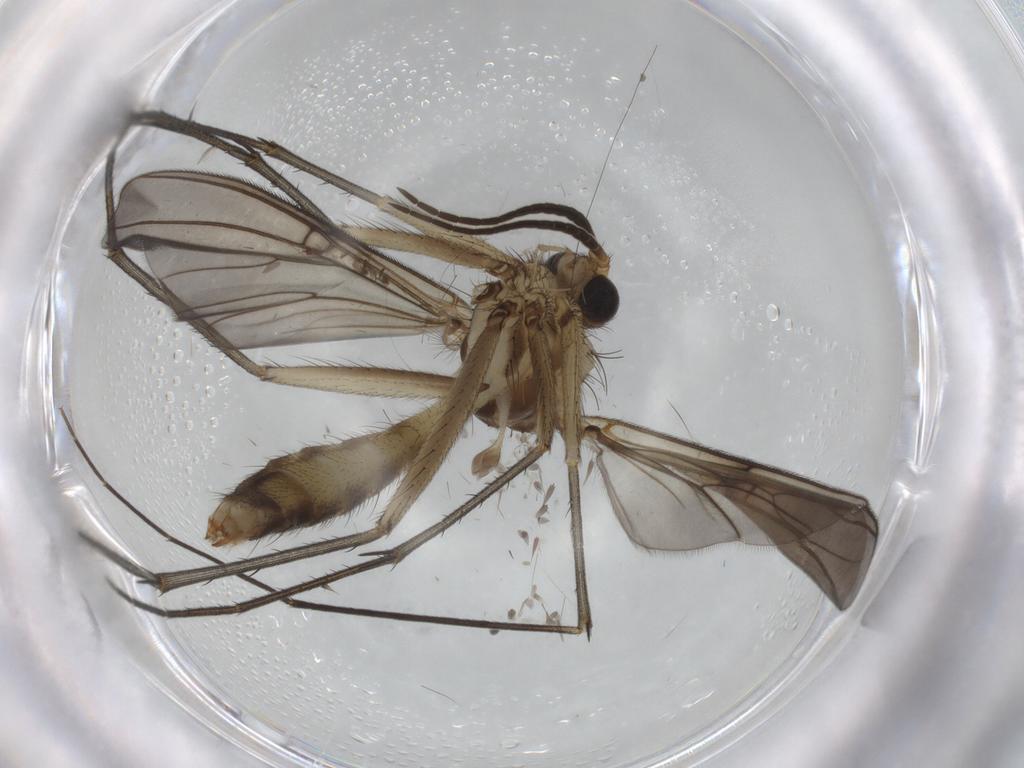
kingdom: Animalia
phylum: Arthropoda
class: Insecta
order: Diptera
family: Mycetophilidae
